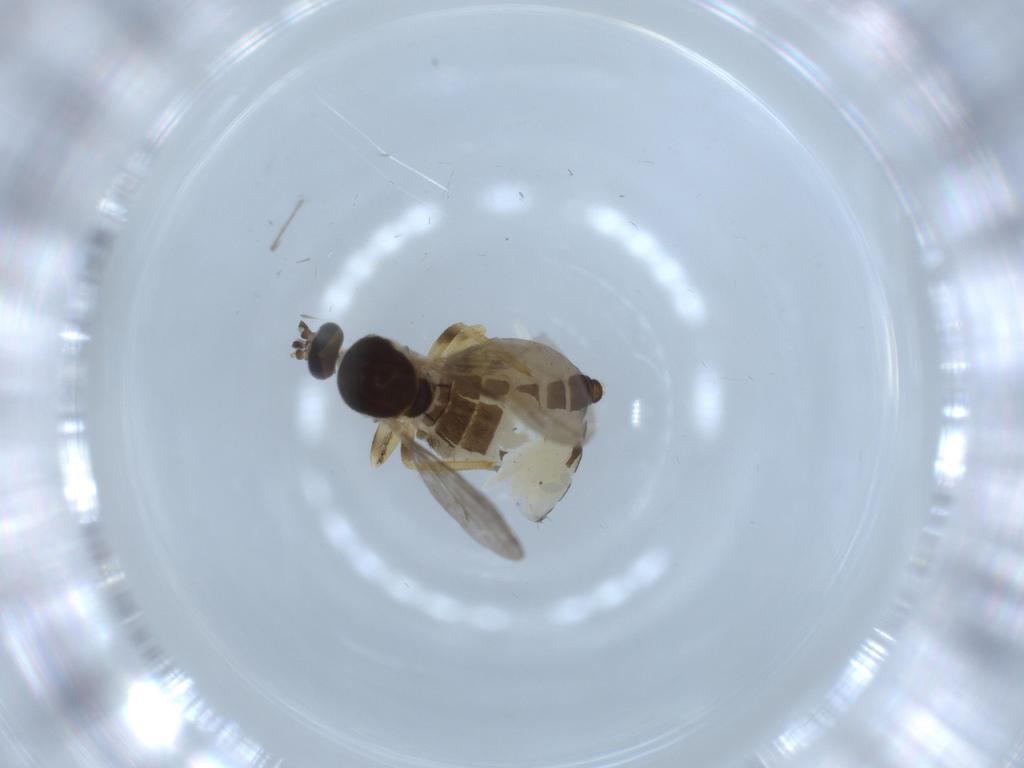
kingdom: Animalia
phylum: Arthropoda
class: Insecta
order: Diptera
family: Ceratopogonidae
